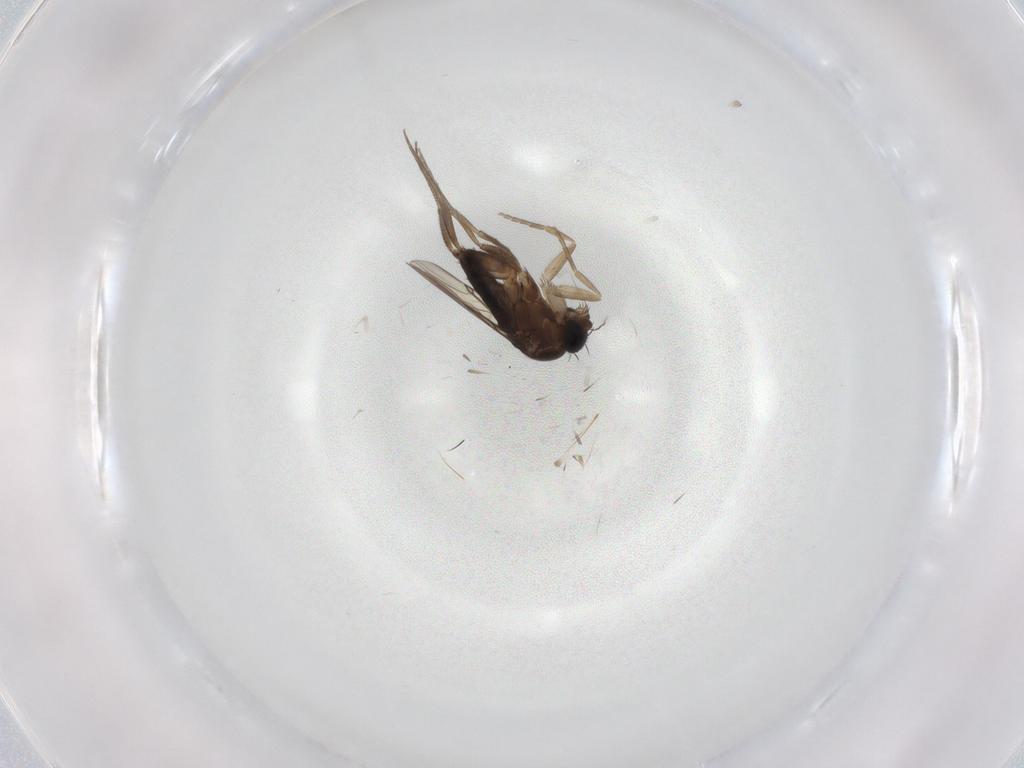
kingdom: Animalia
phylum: Arthropoda
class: Insecta
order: Diptera
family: Phoridae
